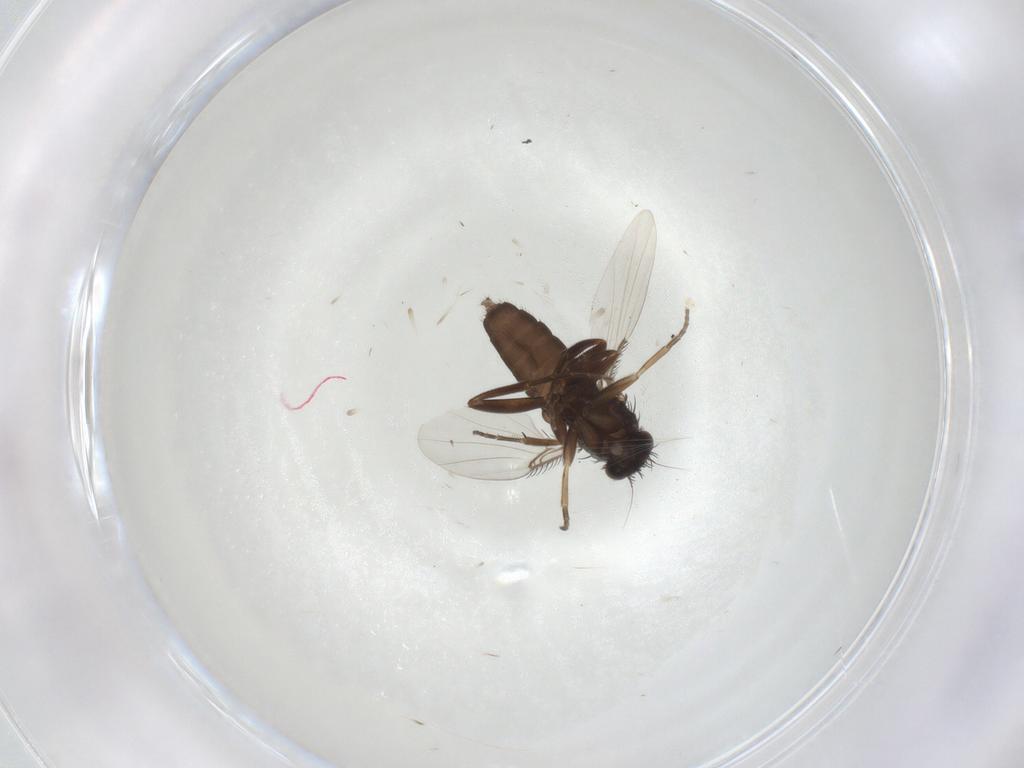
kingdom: Animalia
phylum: Arthropoda
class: Insecta
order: Diptera
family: Phoridae
